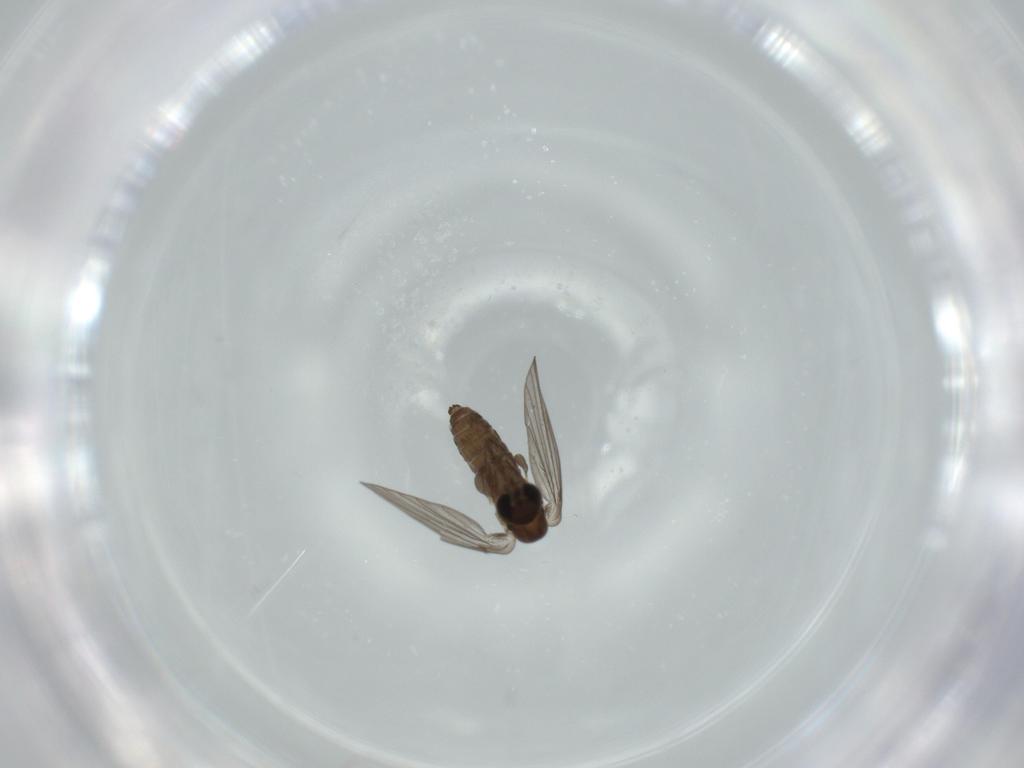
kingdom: Animalia
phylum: Arthropoda
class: Insecta
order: Diptera
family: Psychodidae
